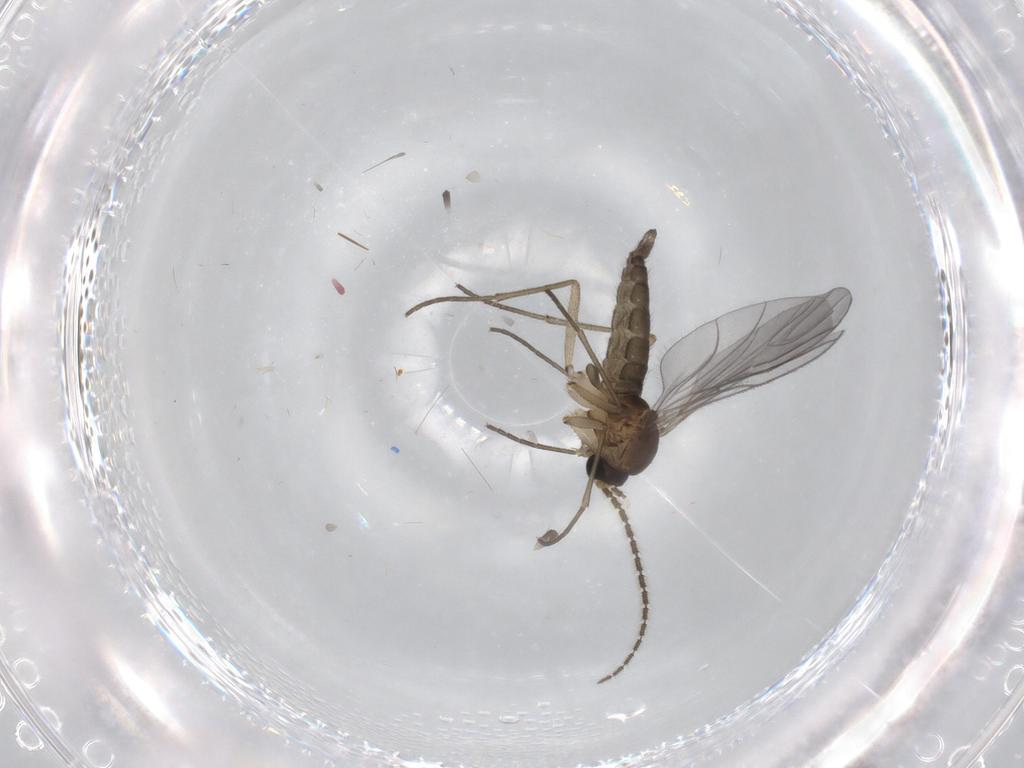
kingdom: Animalia
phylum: Arthropoda
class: Insecta
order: Diptera
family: Sciaridae
